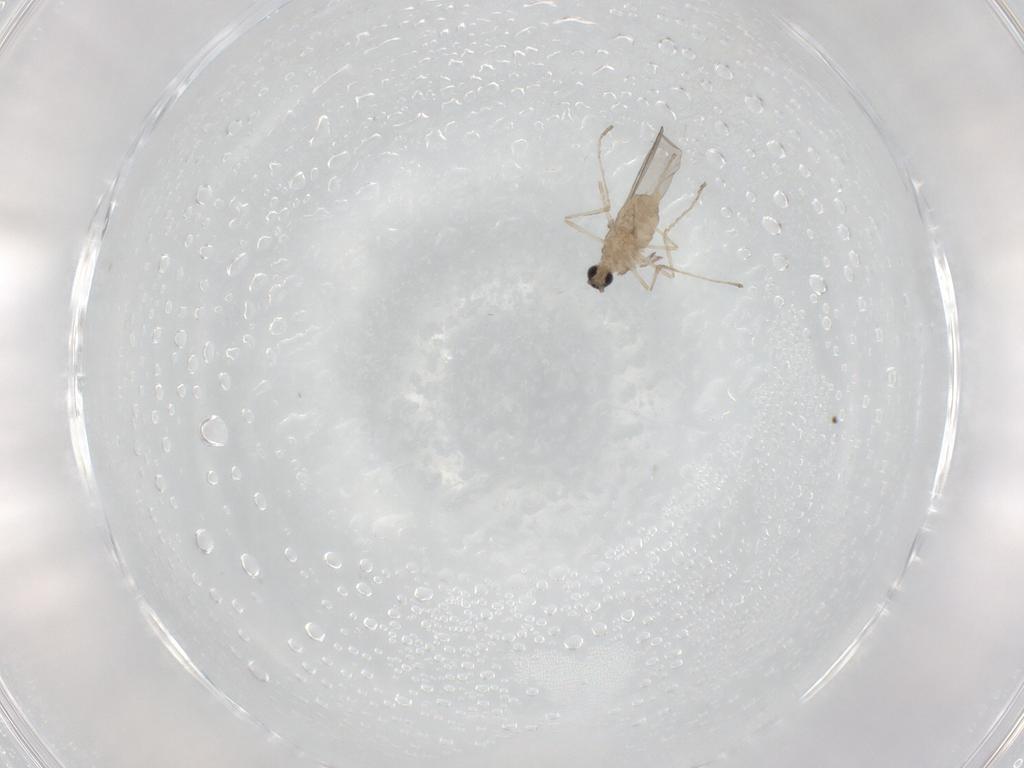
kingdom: Animalia
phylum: Arthropoda
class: Insecta
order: Diptera
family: Cecidomyiidae
